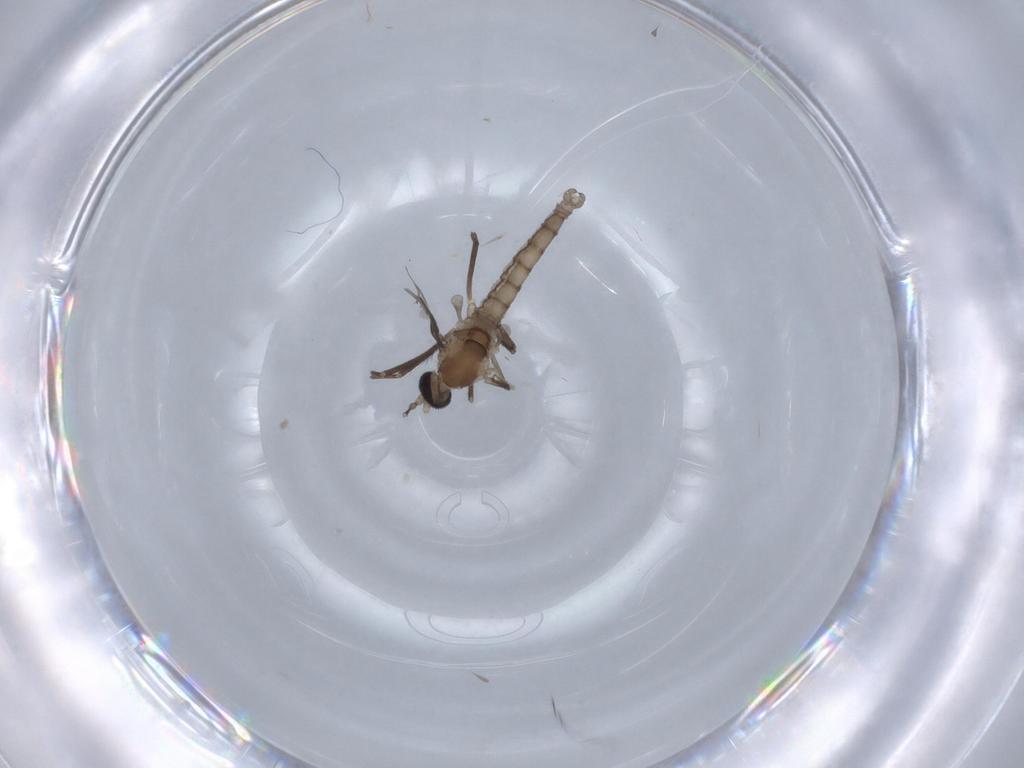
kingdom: Animalia
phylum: Arthropoda
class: Insecta
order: Diptera
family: Cecidomyiidae
